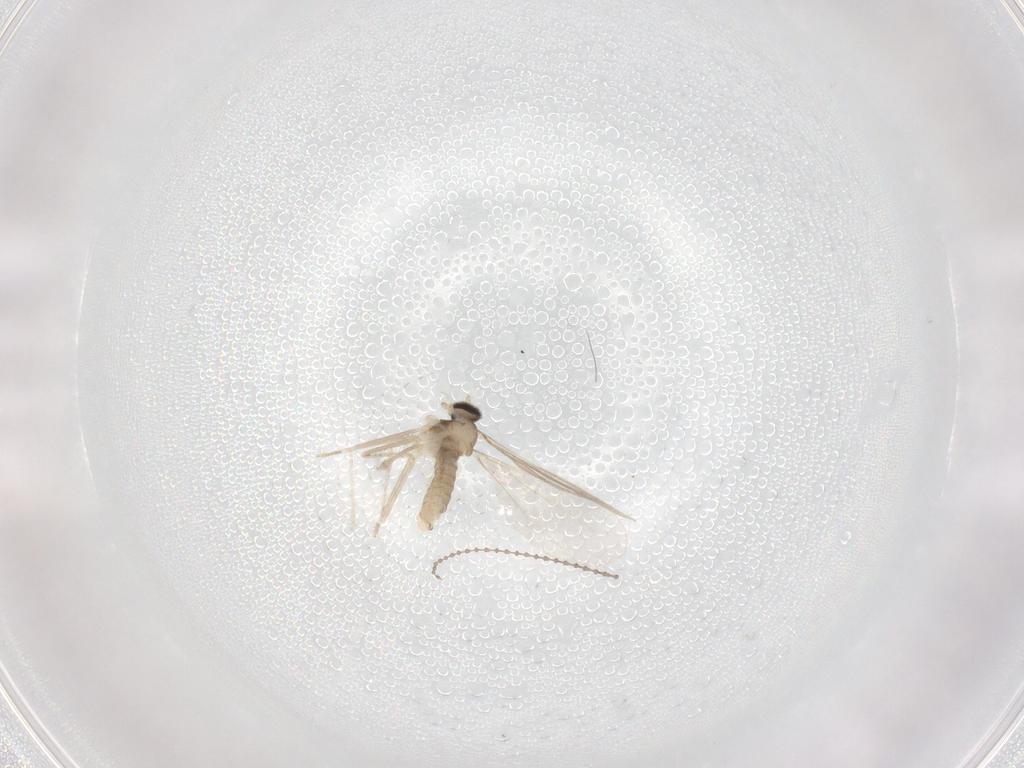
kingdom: Animalia
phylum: Arthropoda
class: Insecta
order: Diptera
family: Cecidomyiidae
